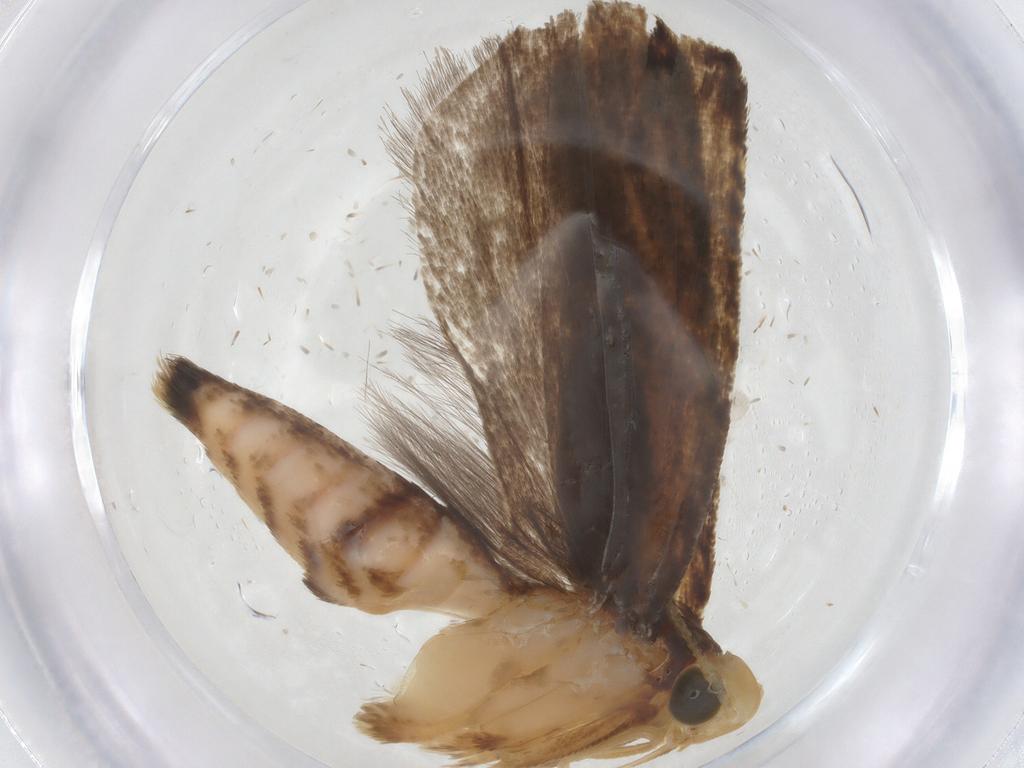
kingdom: Animalia
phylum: Arthropoda
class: Insecta
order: Lepidoptera
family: Gelechiidae
